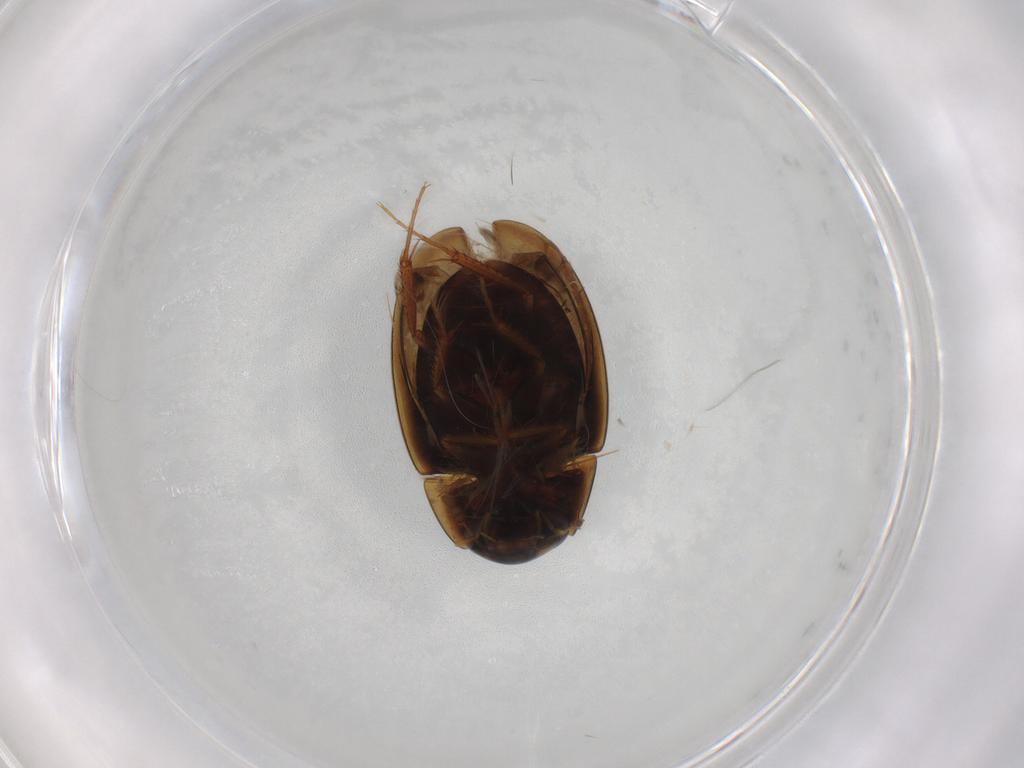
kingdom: Animalia
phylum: Arthropoda
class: Insecta
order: Coleoptera
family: Hydrophilidae
